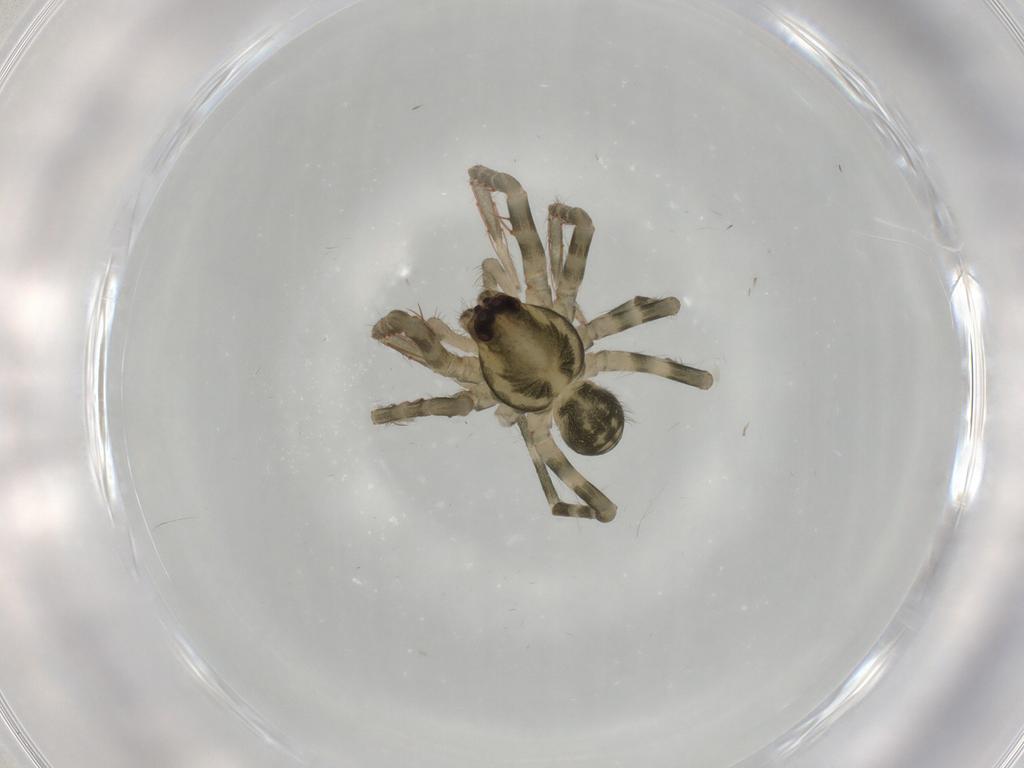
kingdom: Animalia
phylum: Arthropoda
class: Arachnida
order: Araneae
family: Ctenidae
